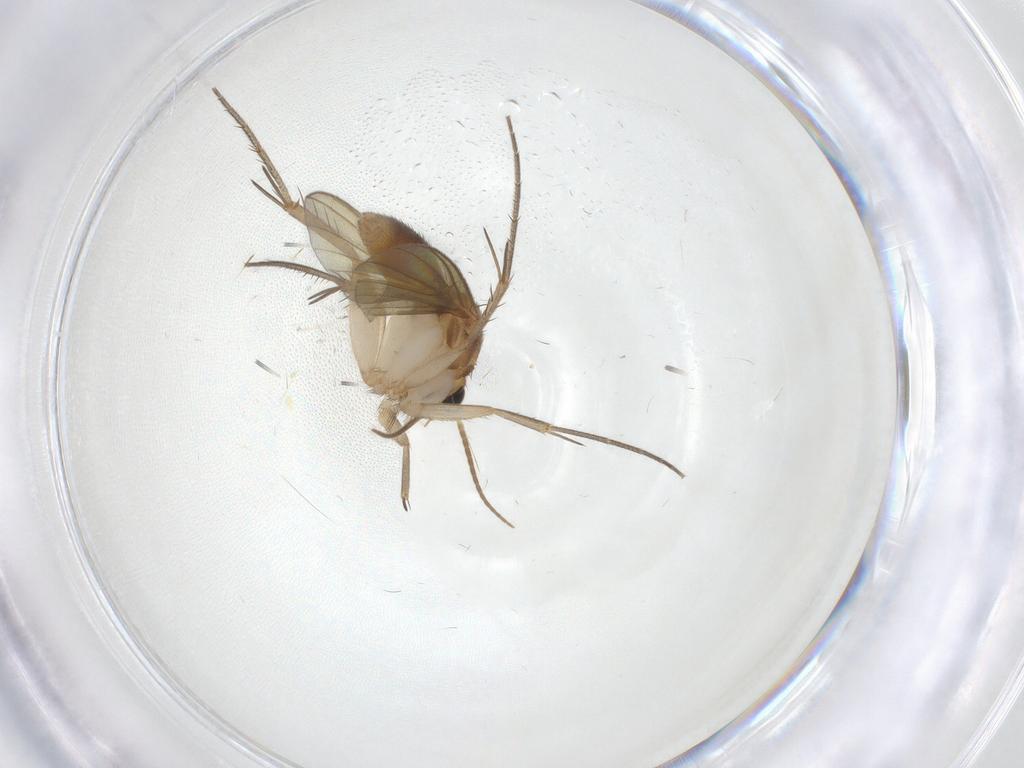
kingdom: Animalia
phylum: Arthropoda
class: Insecta
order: Diptera
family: Mycetophilidae
